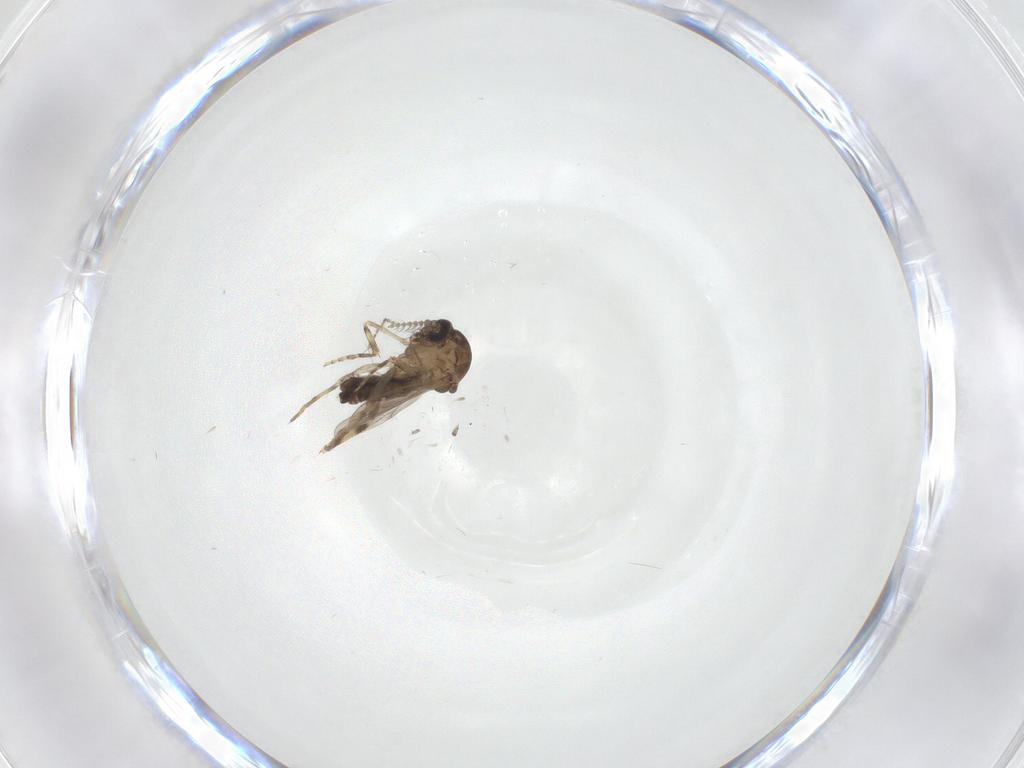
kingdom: Animalia
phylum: Arthropoda
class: Insecta
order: Diptera
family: Ceratopogonidae
